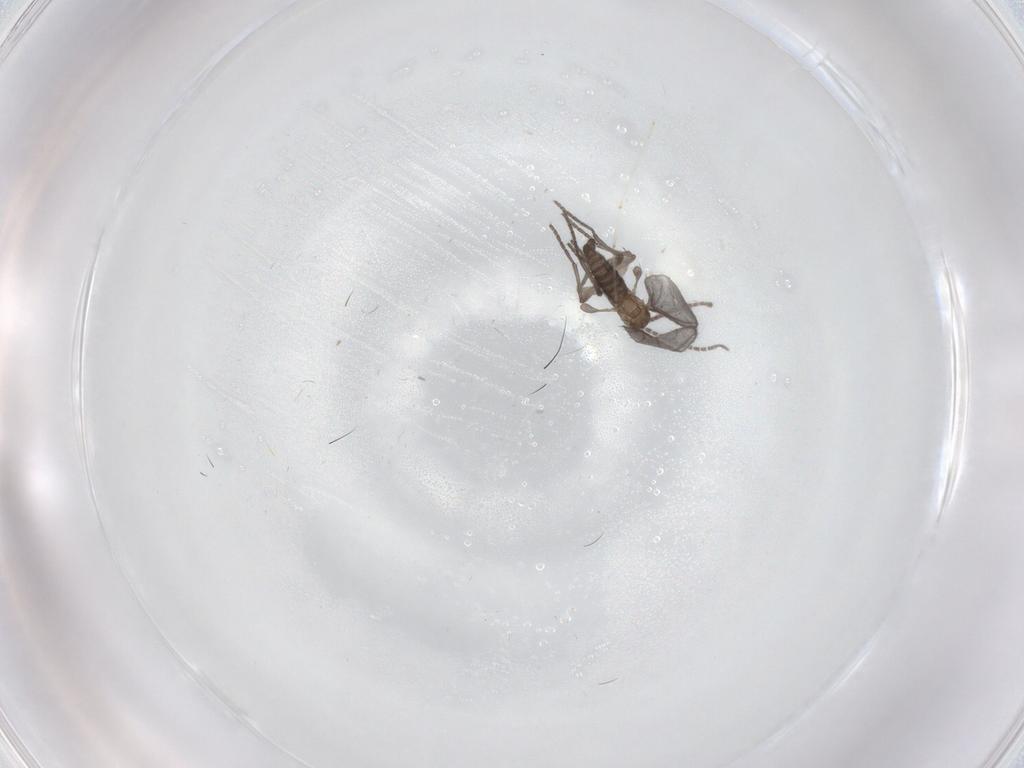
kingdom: Animalia
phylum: Arthropoda
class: Insecta
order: Diptera
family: Sciaridae
